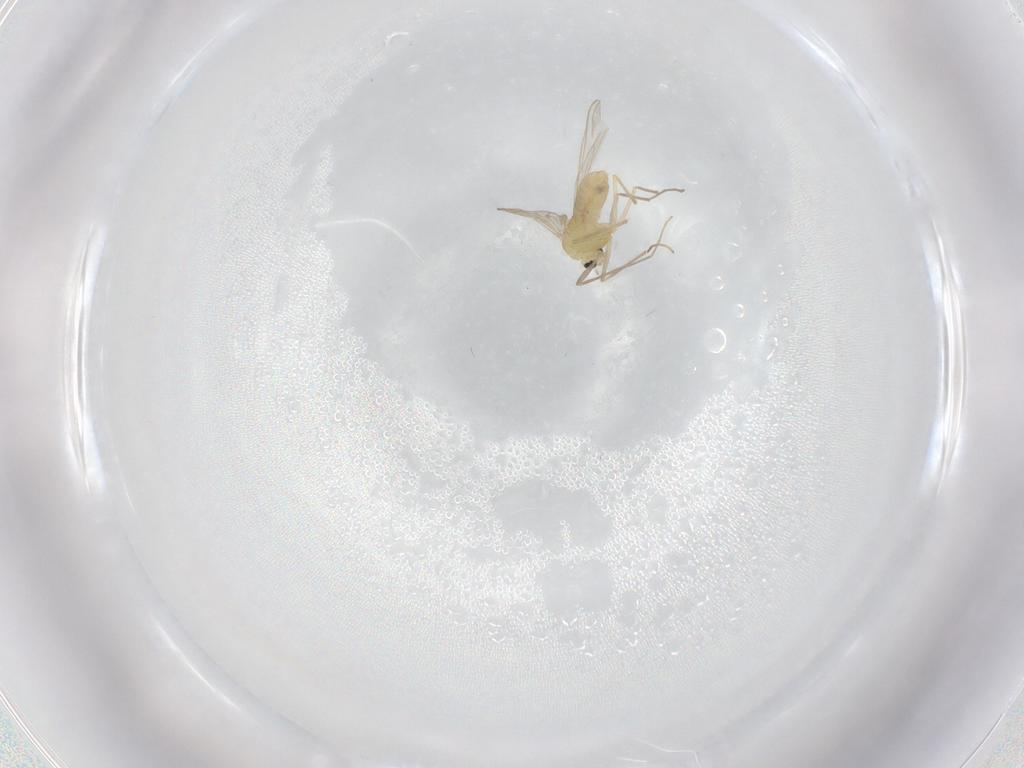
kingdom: Animalia
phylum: Arthropoda
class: Insecta
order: Diptera
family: Chironomidae
